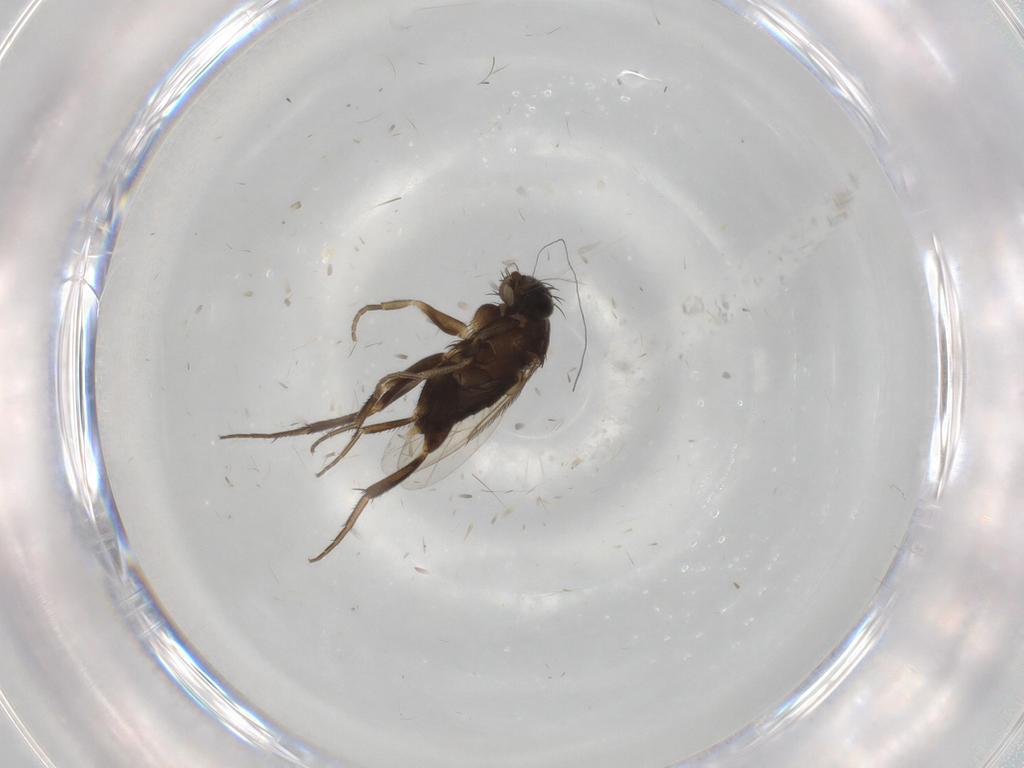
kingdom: Animalia
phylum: Arthropoda
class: Insecta
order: Diptera
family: Phoridae
